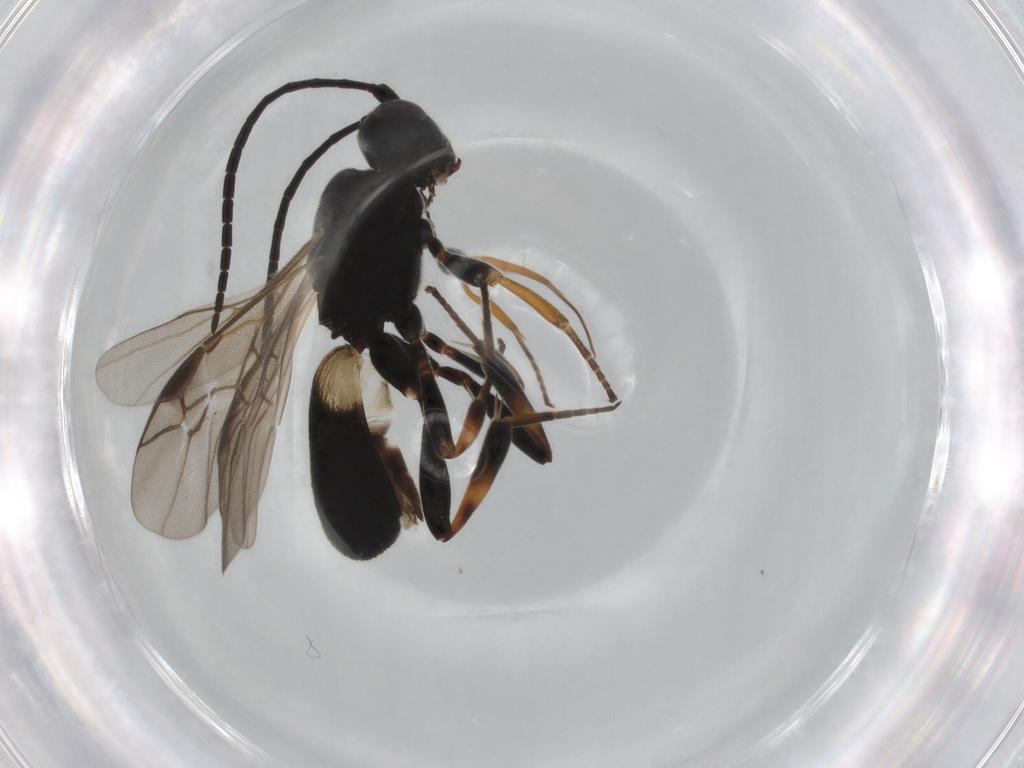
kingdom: Animalia
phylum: Arthropoda
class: Insecta
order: Hymenoptera
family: Braconidae
